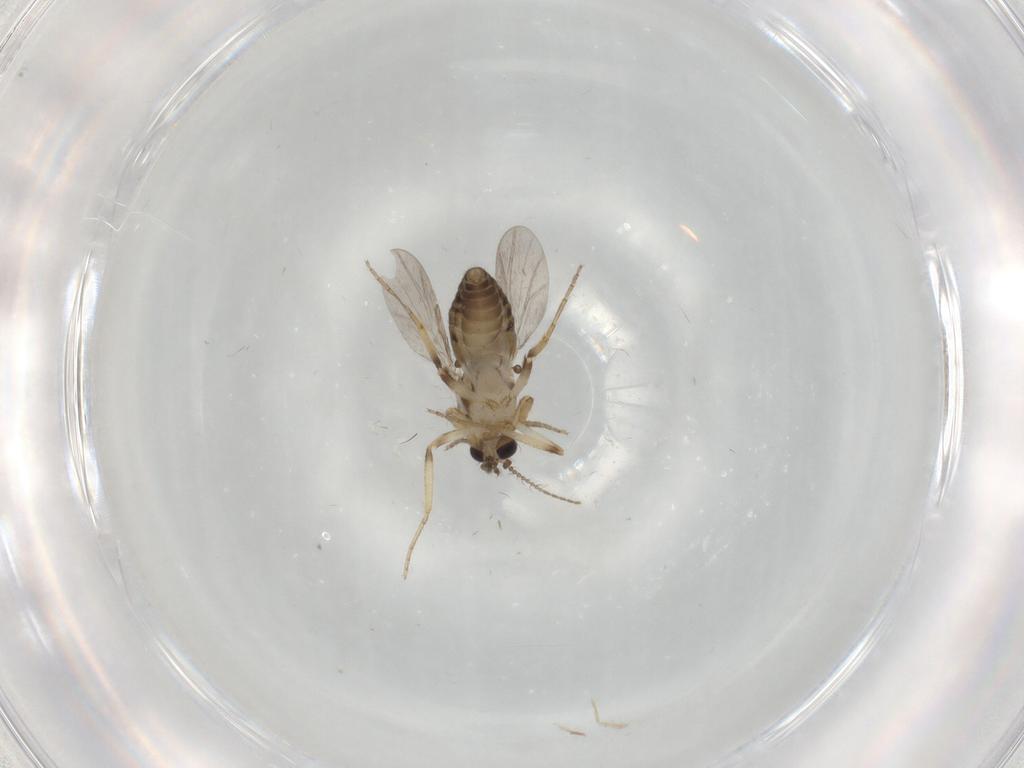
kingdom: Animalia
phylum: Arthropoda
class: Insecta
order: Diptera
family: Ceratopogonidae
